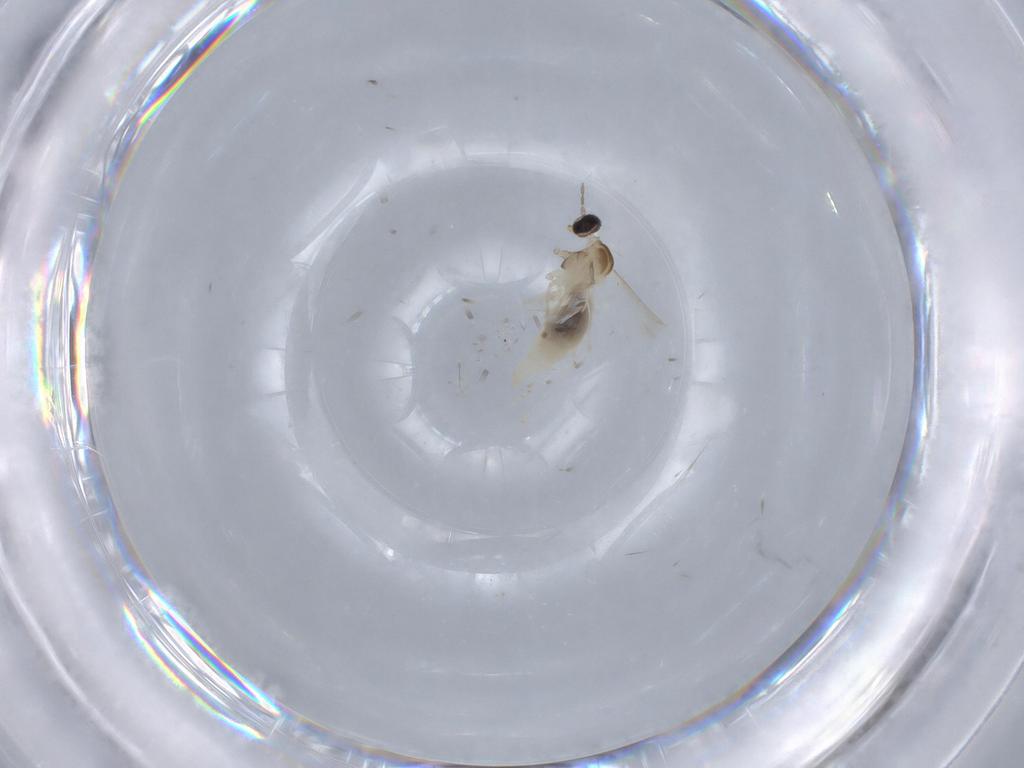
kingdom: Animalia
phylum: Arthropoda
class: Insecta
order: Diptera
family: Cecidomyiidae
